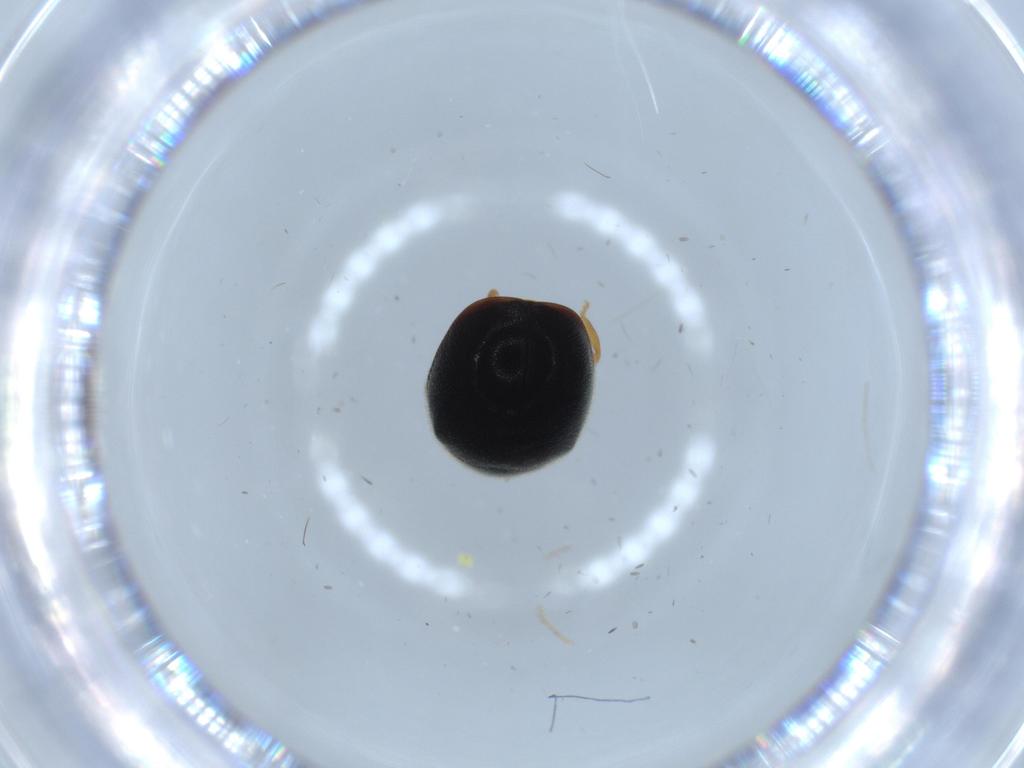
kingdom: Animalia
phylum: Arthropoda
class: Insecta
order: Coleoptera
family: Coccinellidae
